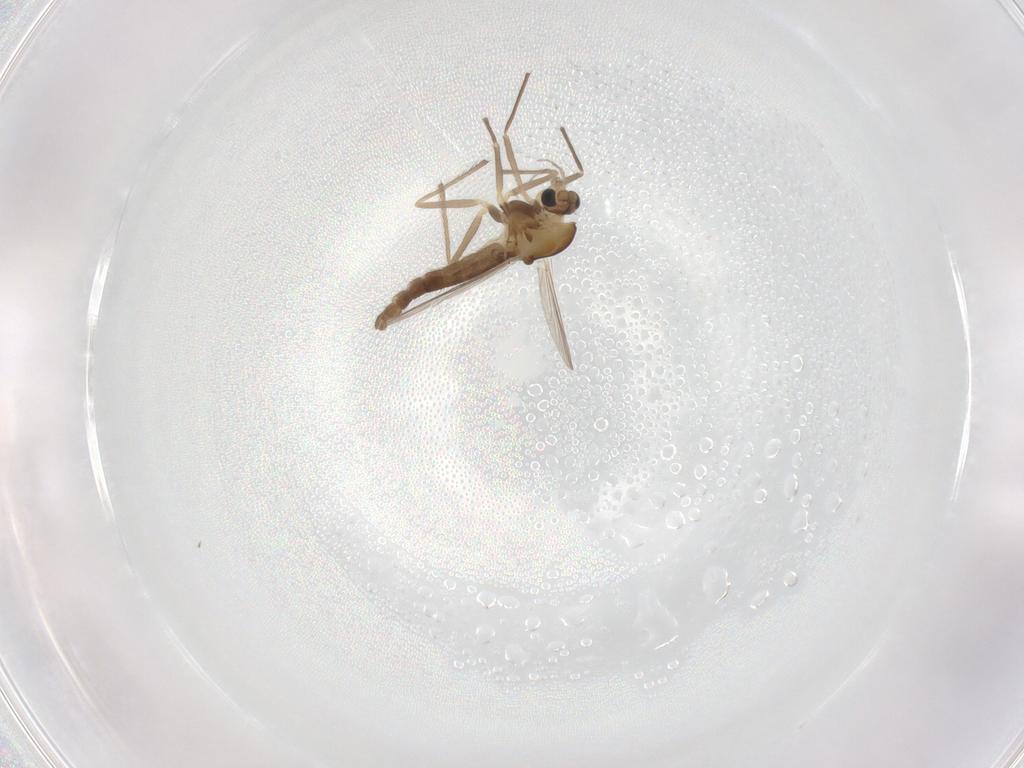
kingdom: Animalia
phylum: Arthropoda
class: Insecta
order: Diptera
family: Chironomidae
